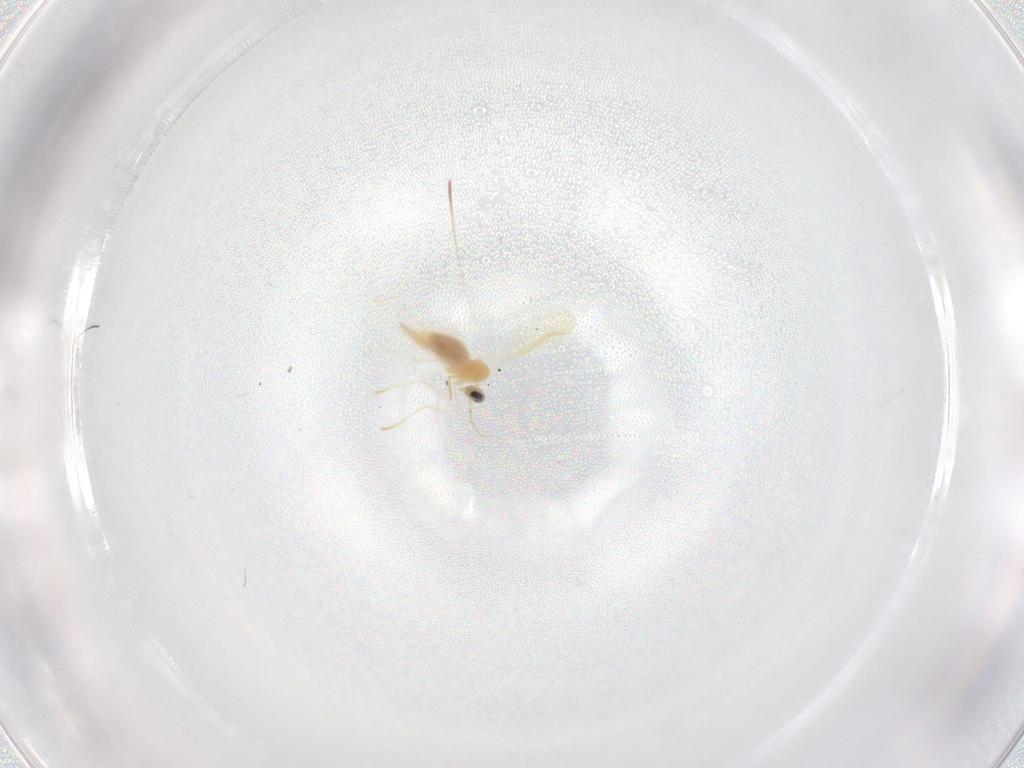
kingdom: Animalia
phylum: Arthropoda
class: Insecta
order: Diptera
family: Cecidomyiidae
